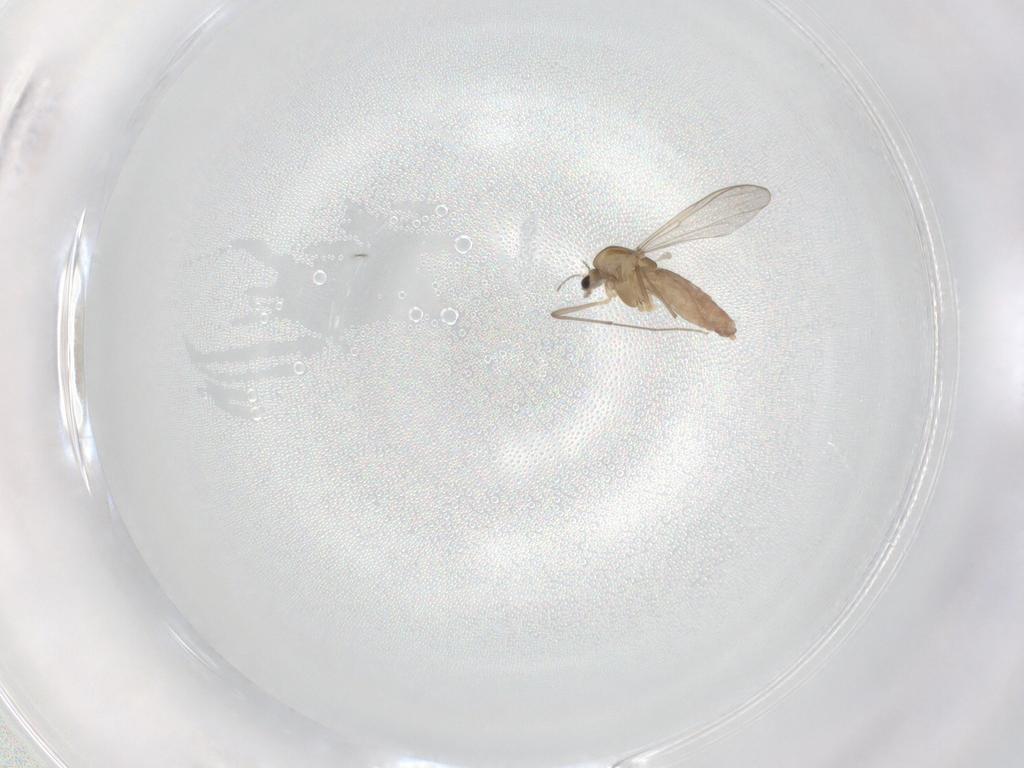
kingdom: Animalia
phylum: Arthropoda
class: Insecta
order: Diptera
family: Chironomidae
